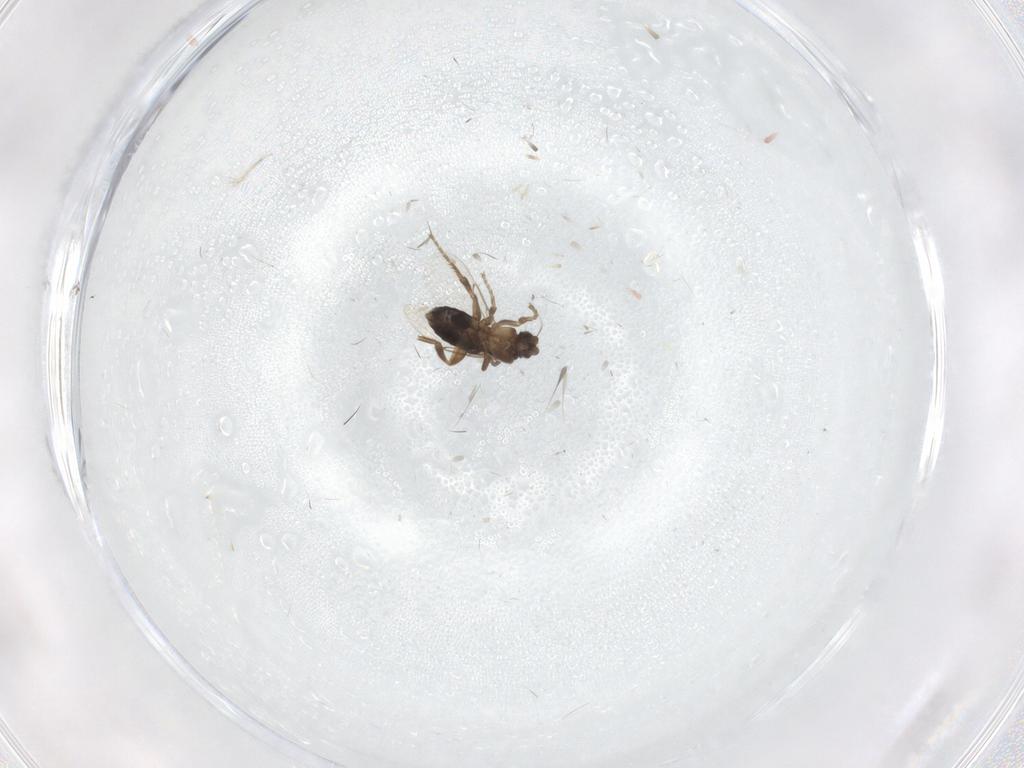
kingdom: Animalia
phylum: Arthropoda
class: Insecta
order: Diptera
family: Phoridae
